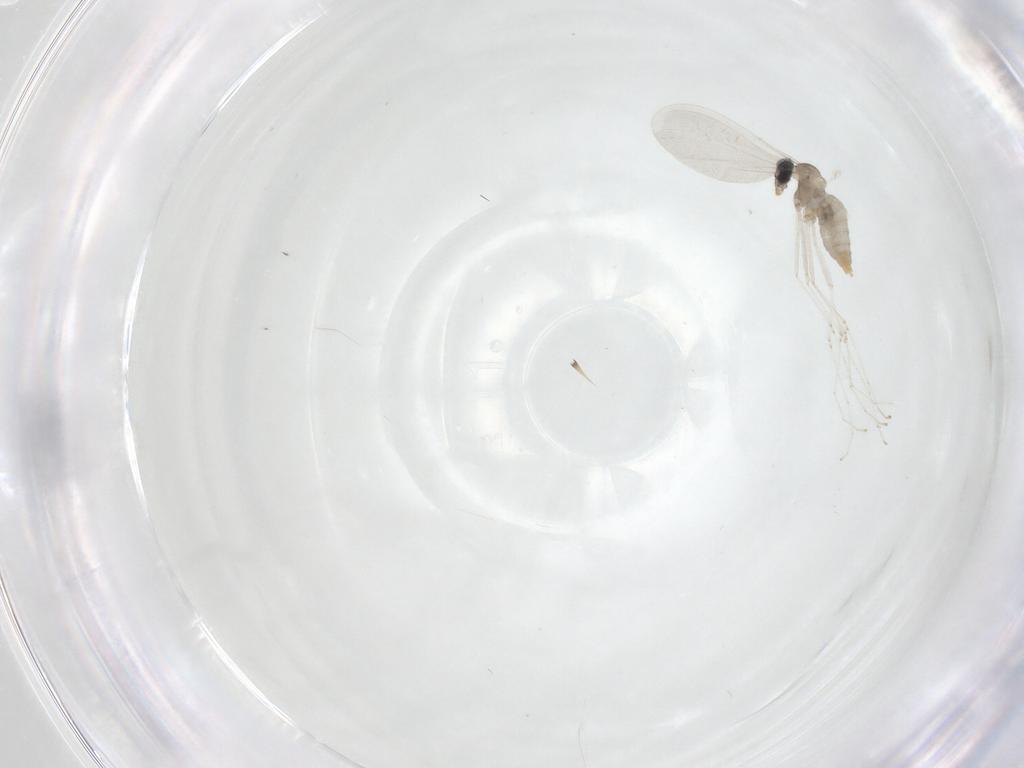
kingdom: Animalia
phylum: Arthropoda
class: Insecta
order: Diptera
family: Cecidomyiidae
